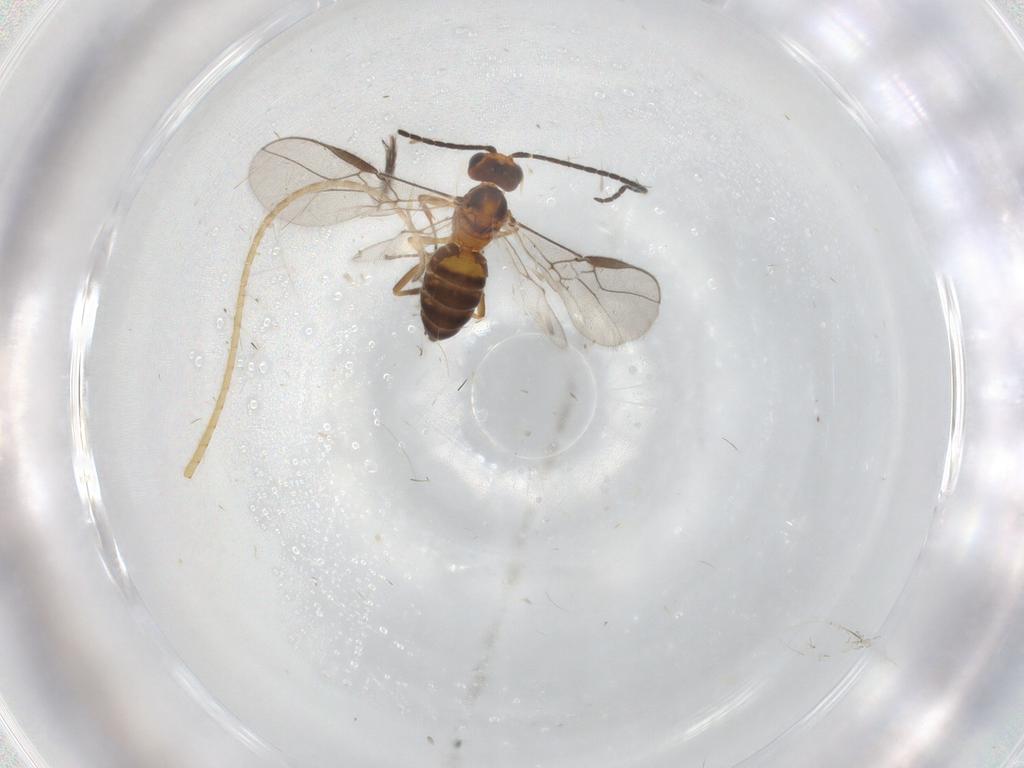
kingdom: Animalia
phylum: Arthropoda
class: Insecta
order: Hymenoptera
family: Braconidae
